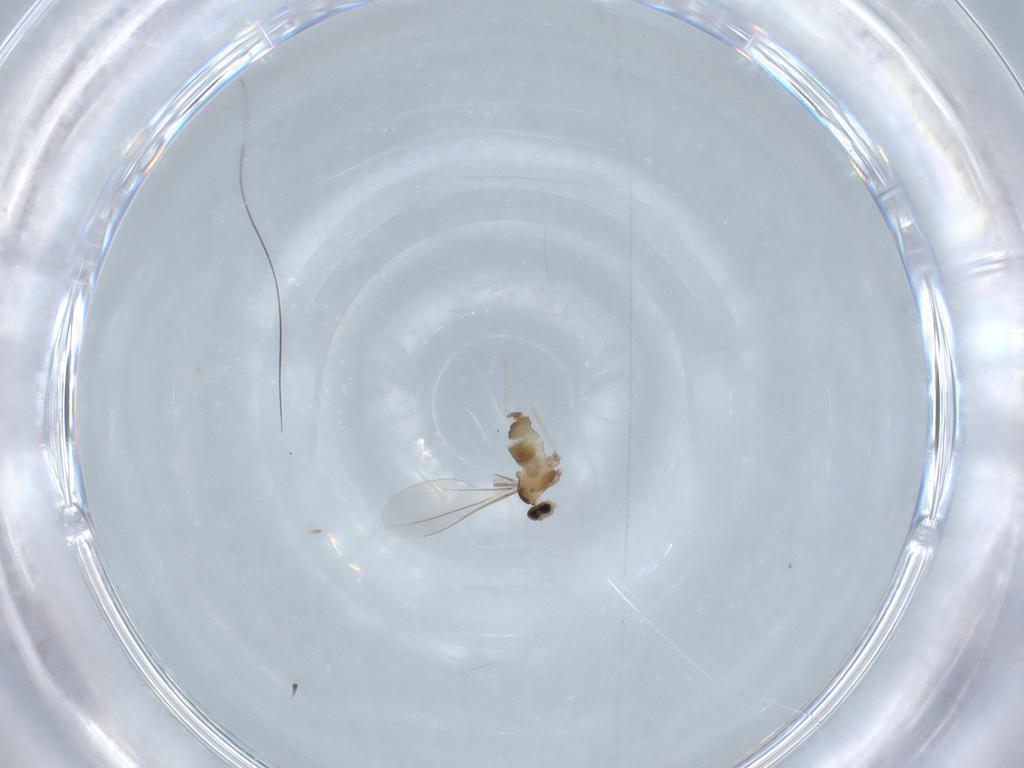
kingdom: Animalia
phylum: Arthropoda
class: Insecta
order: Diptera
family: Cecidomyiidae
